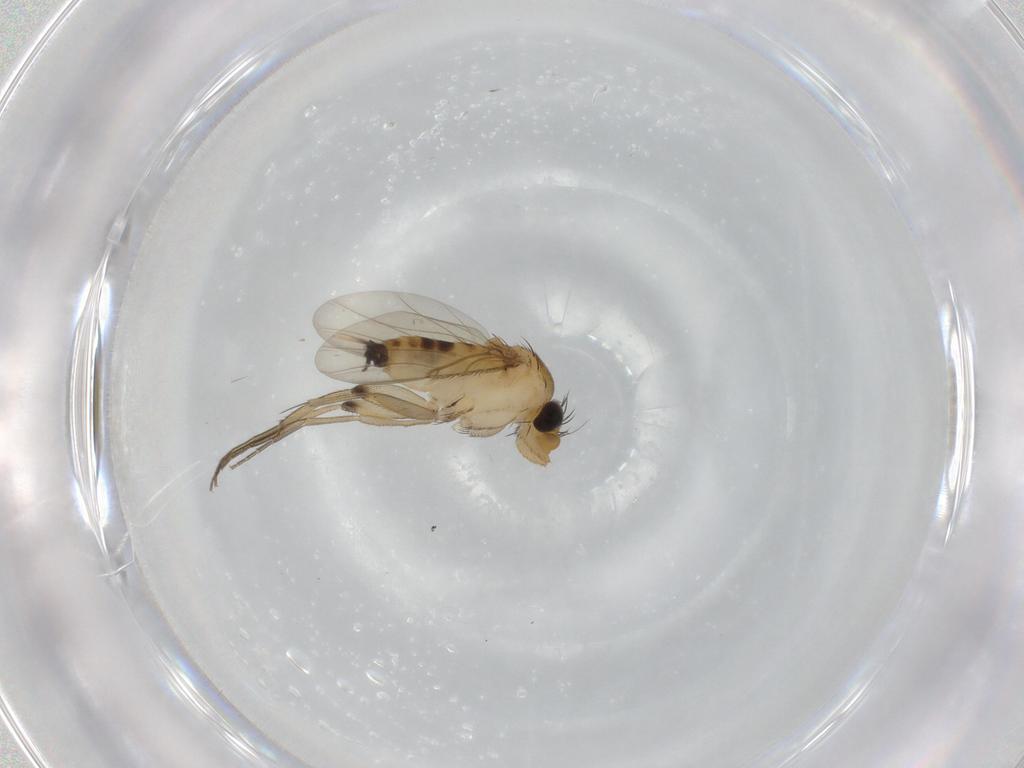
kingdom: Animalia
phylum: Arthropoda
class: Insecta
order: Diptera
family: Phoridae
